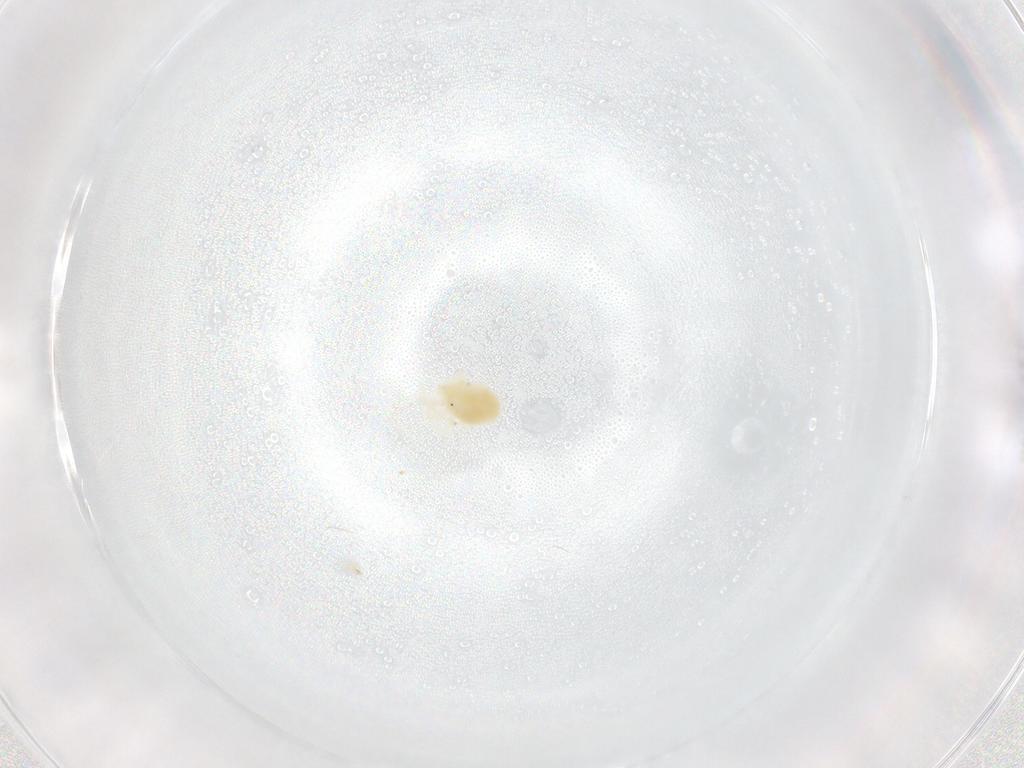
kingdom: Animalia
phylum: Arthropoda
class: Arachnida
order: Trombidiformes
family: Anystidae
